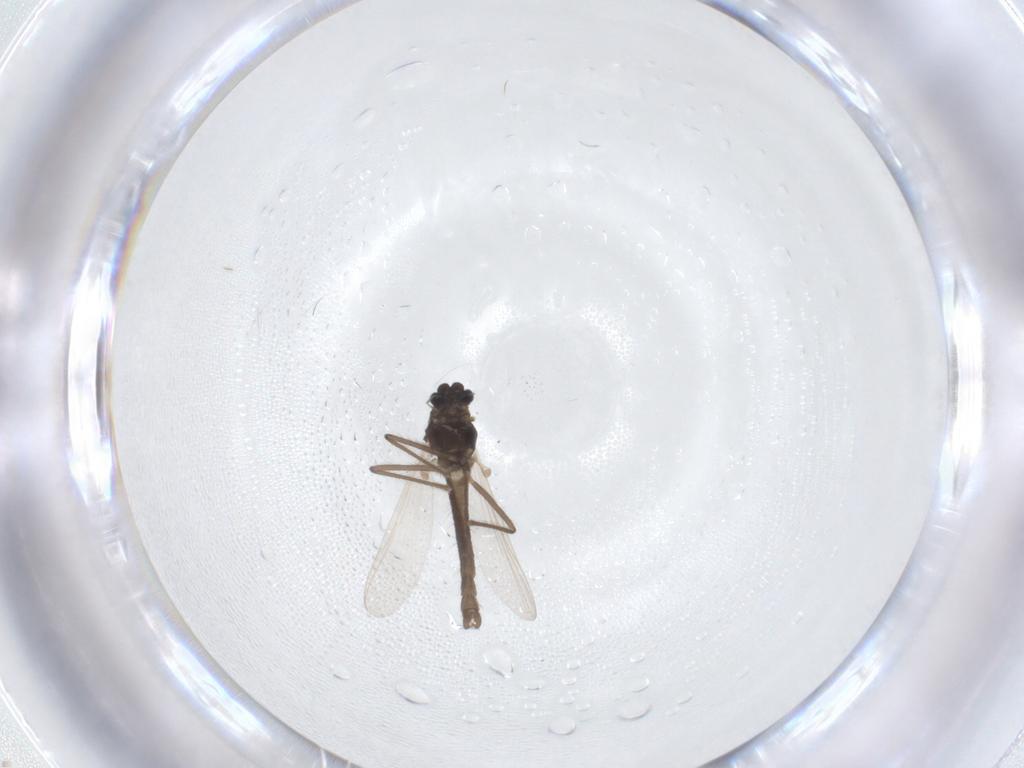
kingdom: Animalia
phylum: Arthropoda
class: Insecta
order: Diptera
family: Chironomidae
